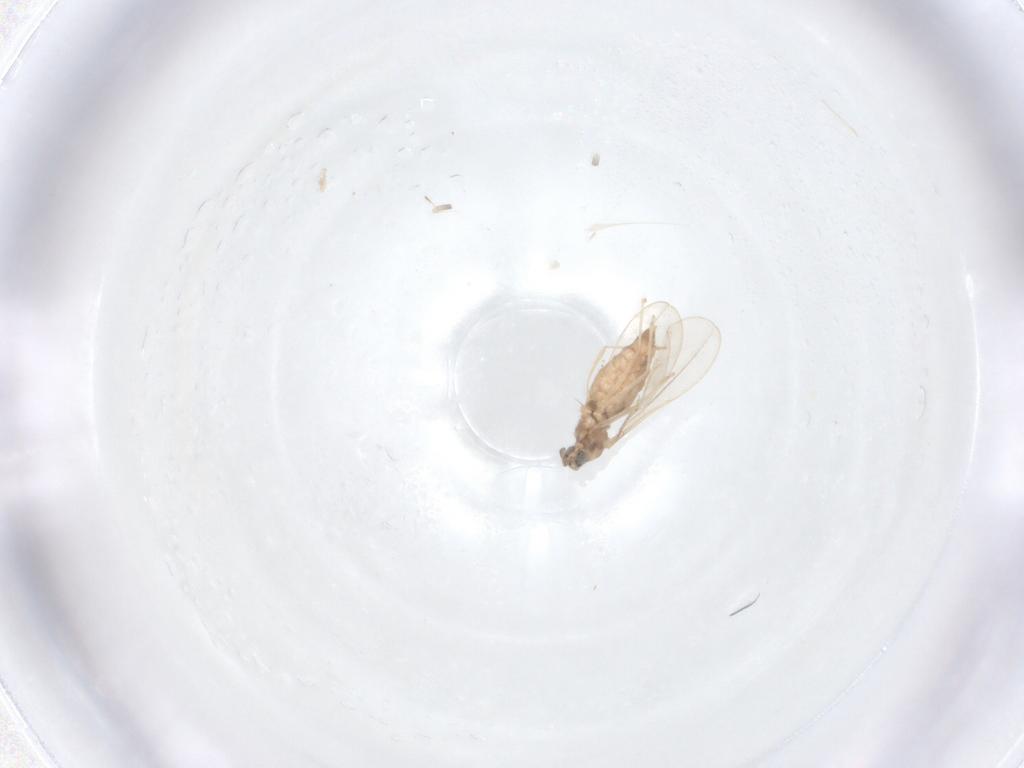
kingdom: Animalia
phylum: Arthropoda
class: Insecta
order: Diptera
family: Cecidomyiidae
